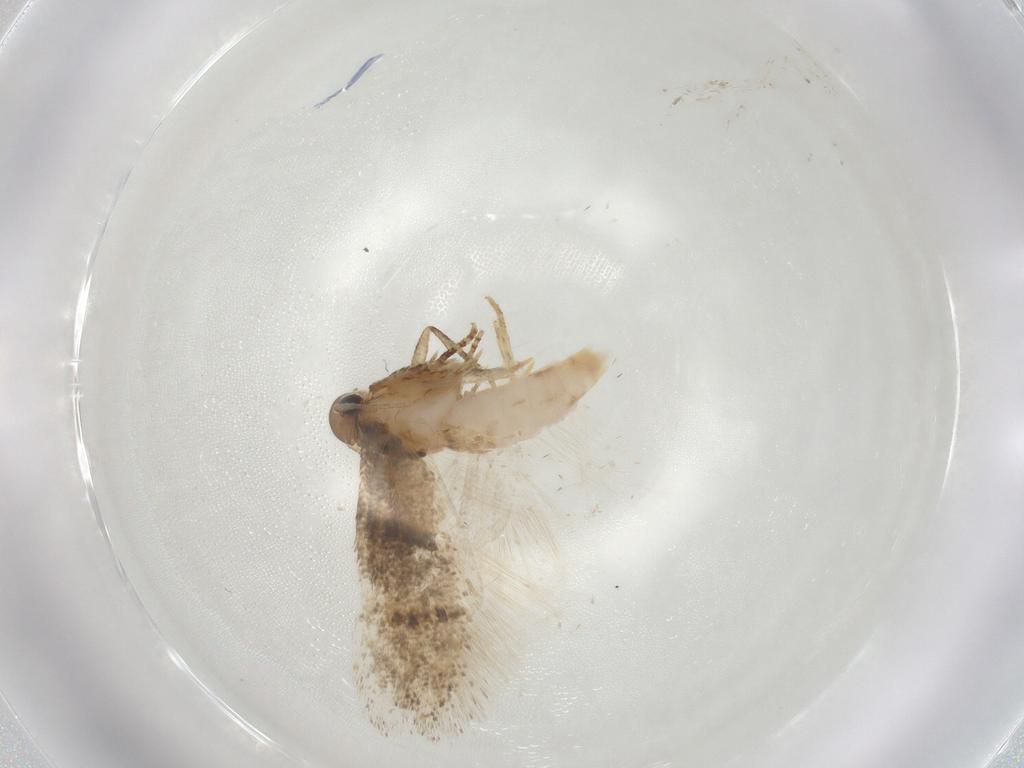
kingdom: Animalia
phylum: Arthropoda
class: Insecta
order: Lepidoptera
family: Gelechiidae
